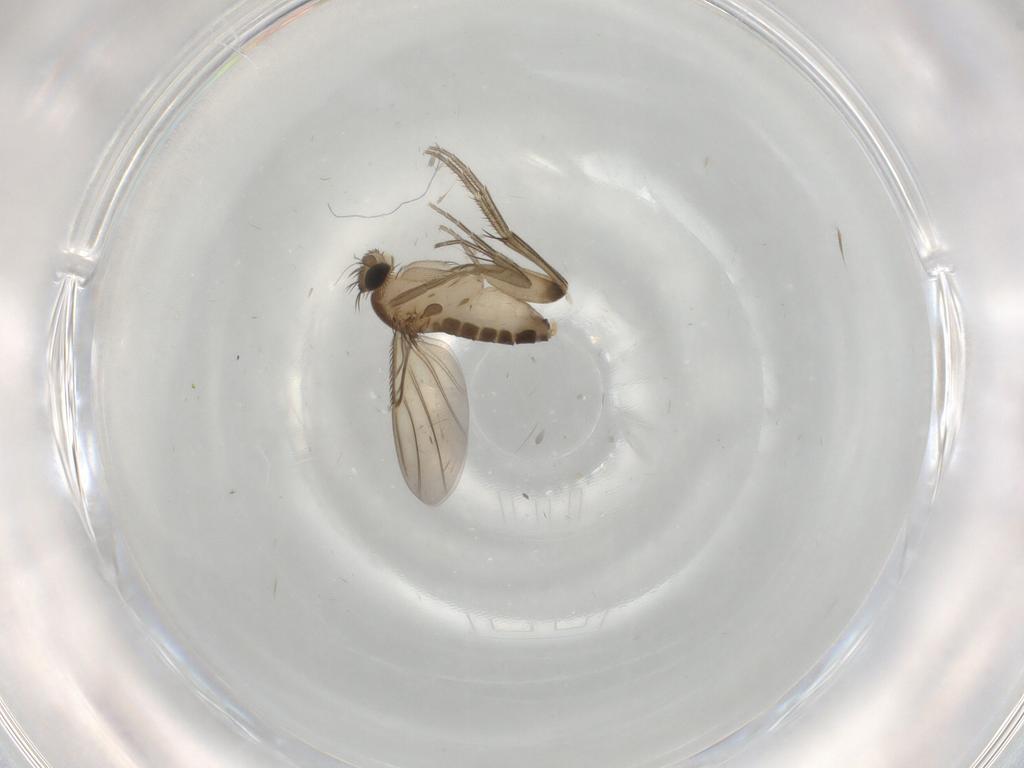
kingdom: Animalia
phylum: Arthropoda
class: Insecta
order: Diptera
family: Phoridae
